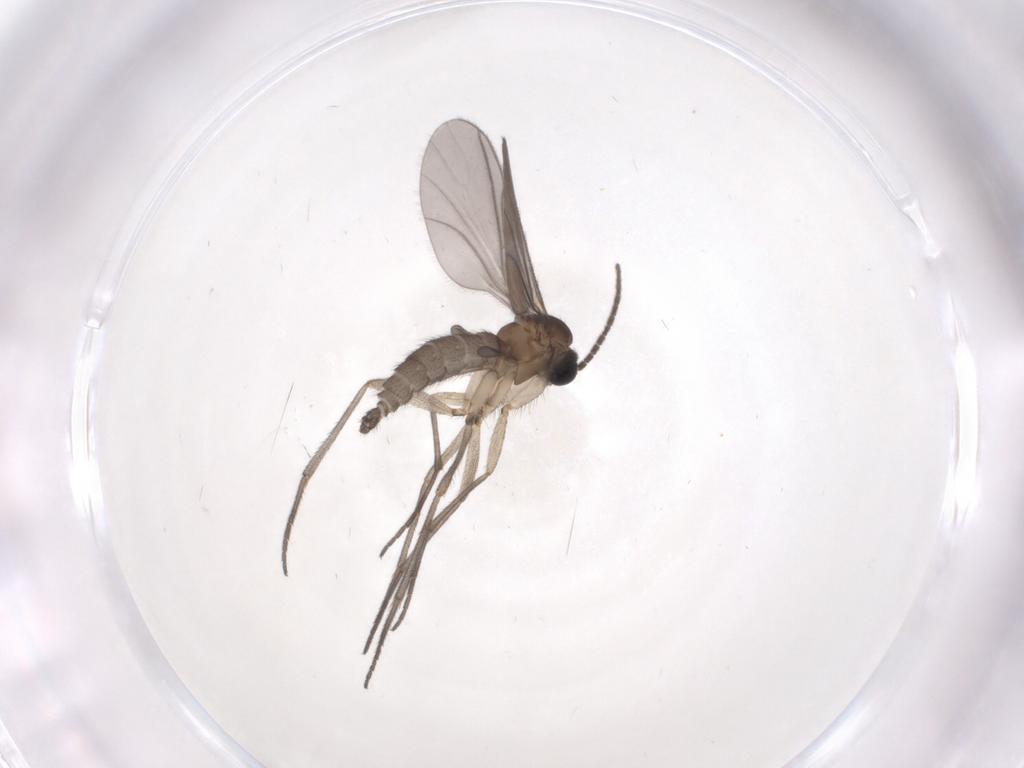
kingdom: Animalia
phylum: Arthropoda
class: Insecta
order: Diptera
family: Sciaridae
